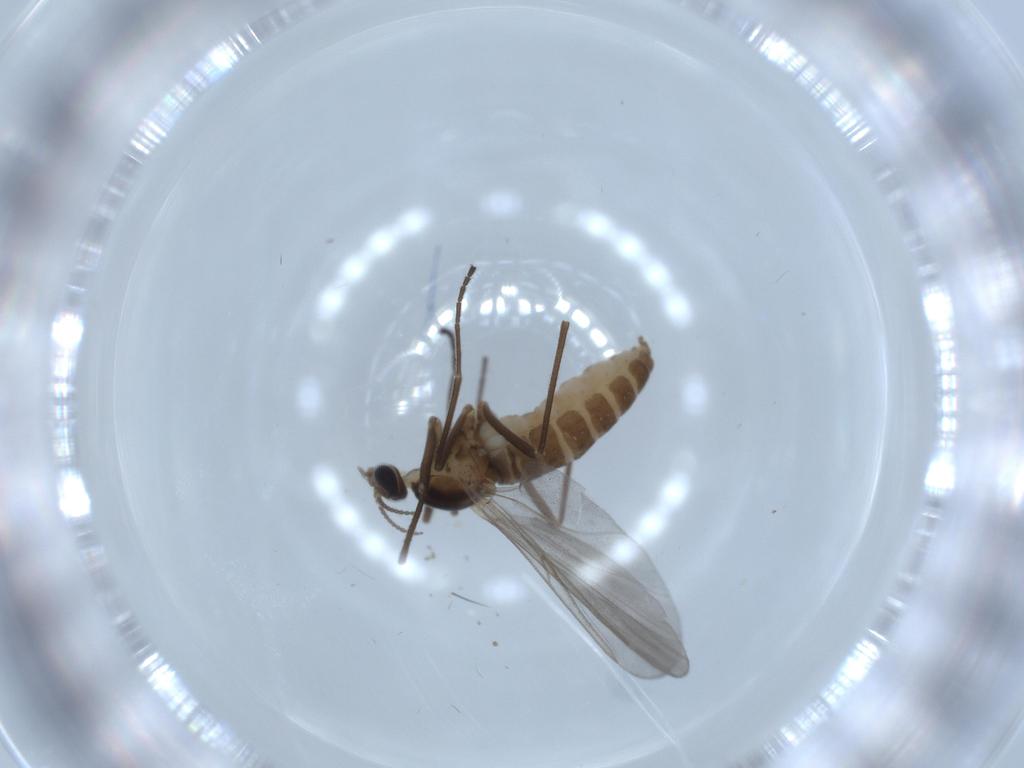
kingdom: Animalia
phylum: Arthropoda
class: Insecta
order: Diptera
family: Cecidomyiidae
